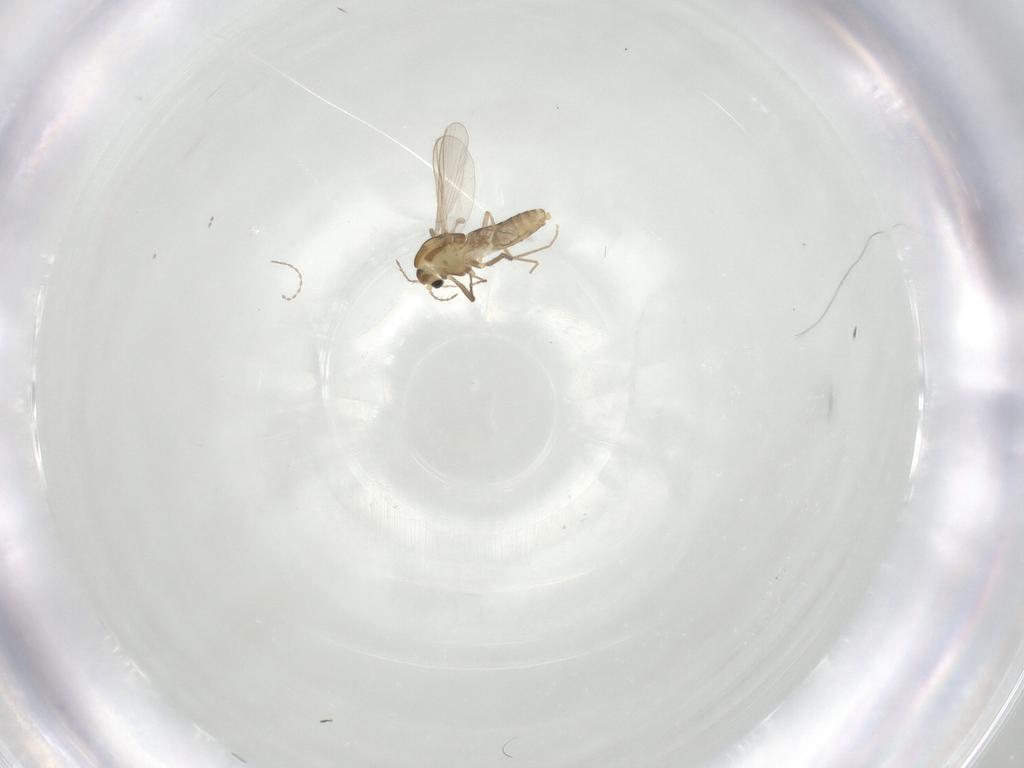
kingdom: Animalia
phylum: Arthropoda
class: Insecta
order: Diptera
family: Chironomidae
